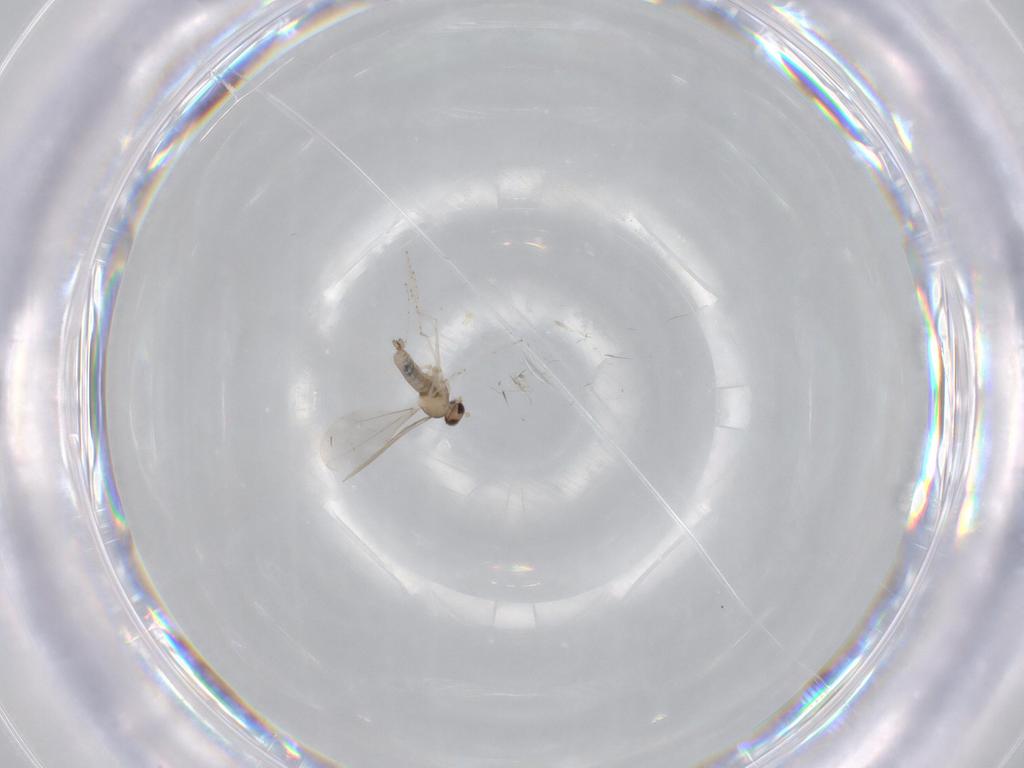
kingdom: Animalia
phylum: Arthropoda
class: Insecta
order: Diptera
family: Cecidomyiidae
